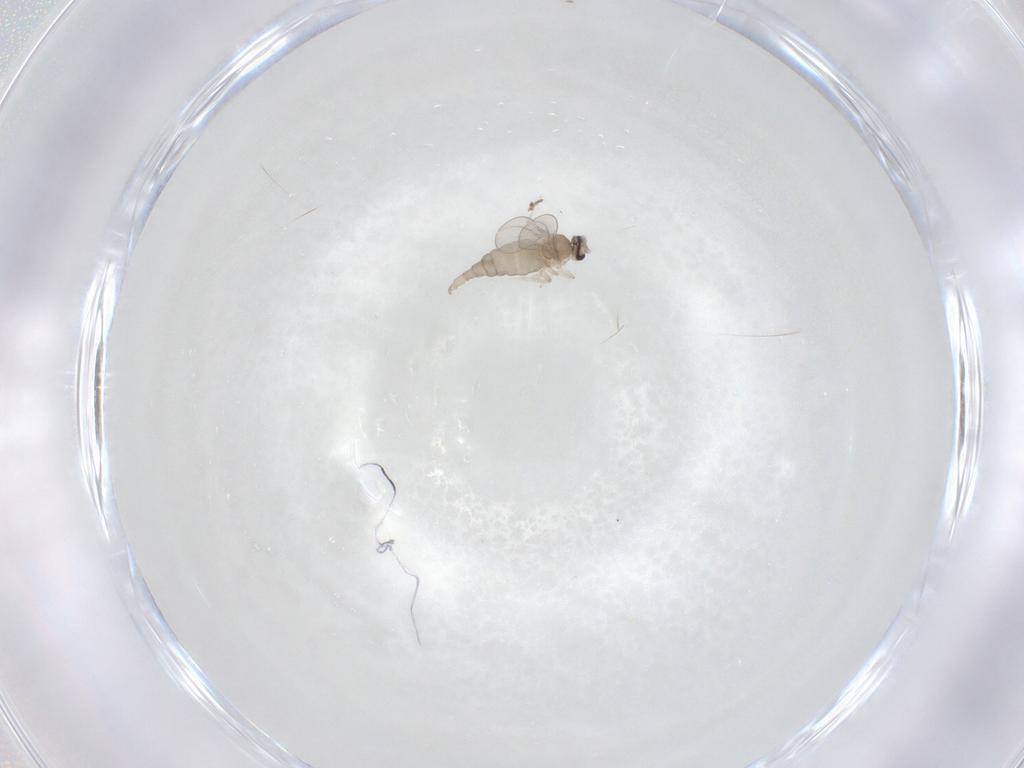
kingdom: Animalia
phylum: Arthropoda
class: Insecta
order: Diptera
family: Cecidomyiidae
